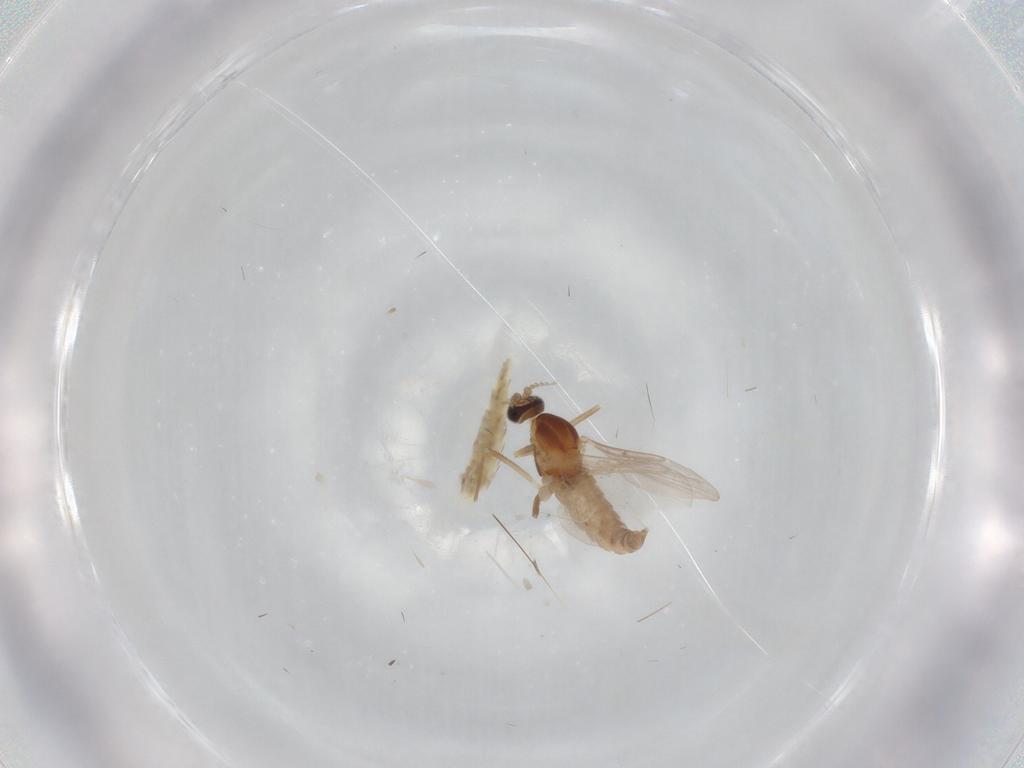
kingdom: Animalia
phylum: Arthropoda
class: Insecta
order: Diptera
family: Cecidomyiidae
